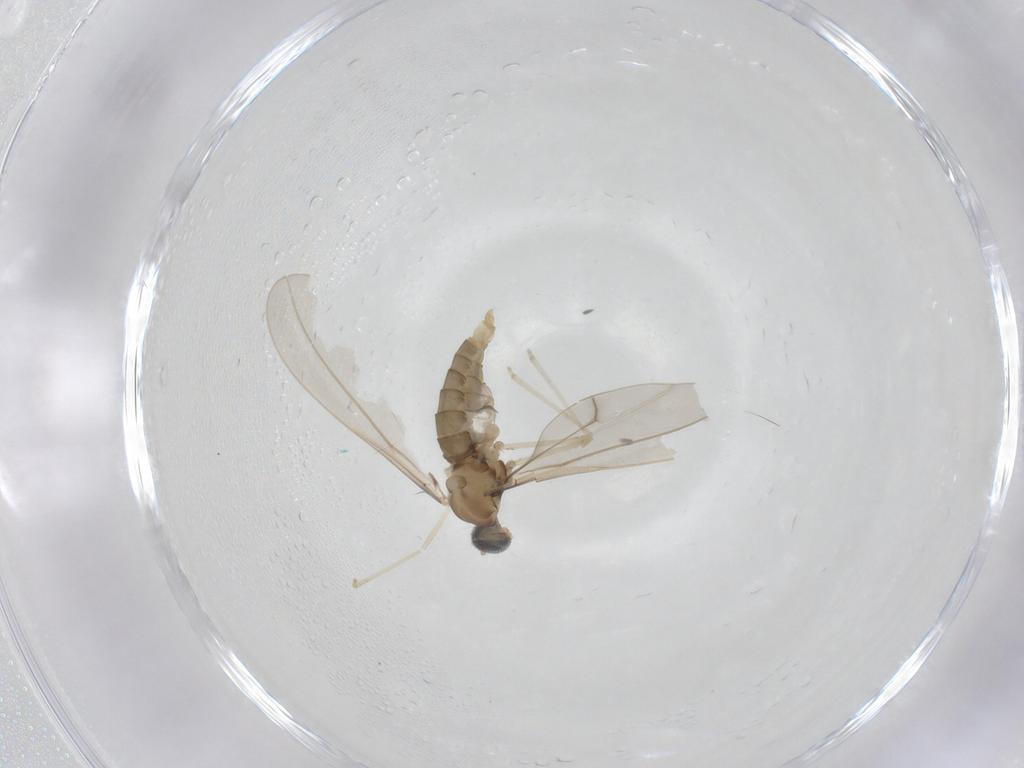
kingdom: Animalia
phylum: Arthropoda
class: Insecta
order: Diptera
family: Cecidomyiidae
